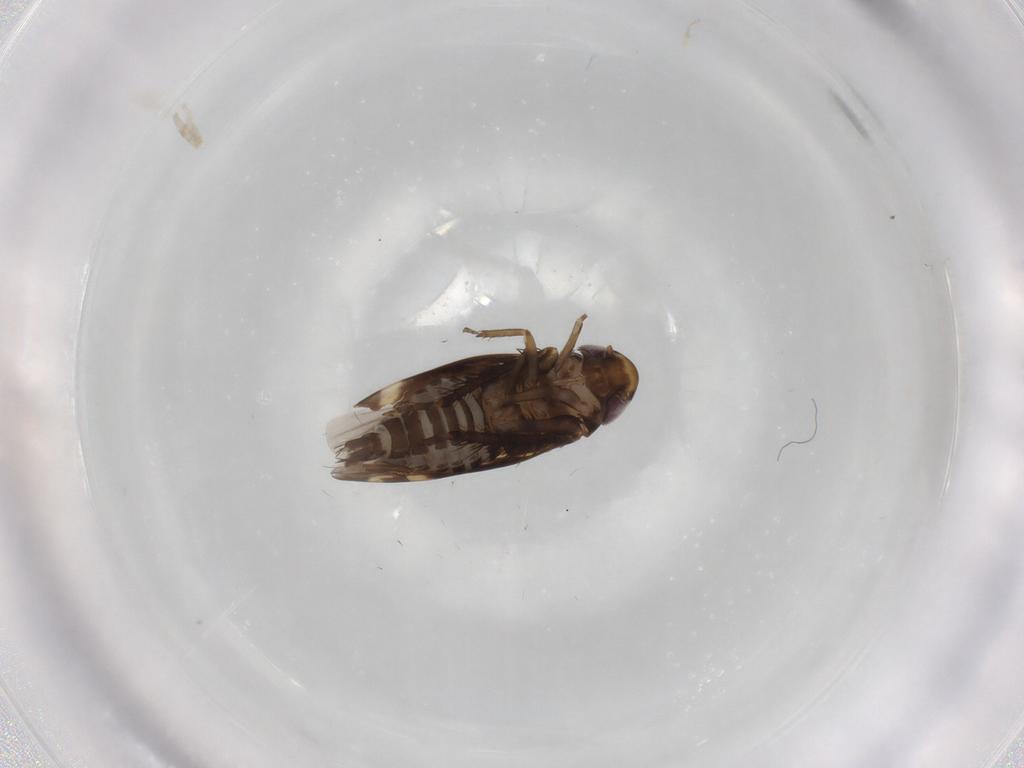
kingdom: Animalia
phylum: Arthropoda
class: Insecta
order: Hemiptera
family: Cicadellidae
